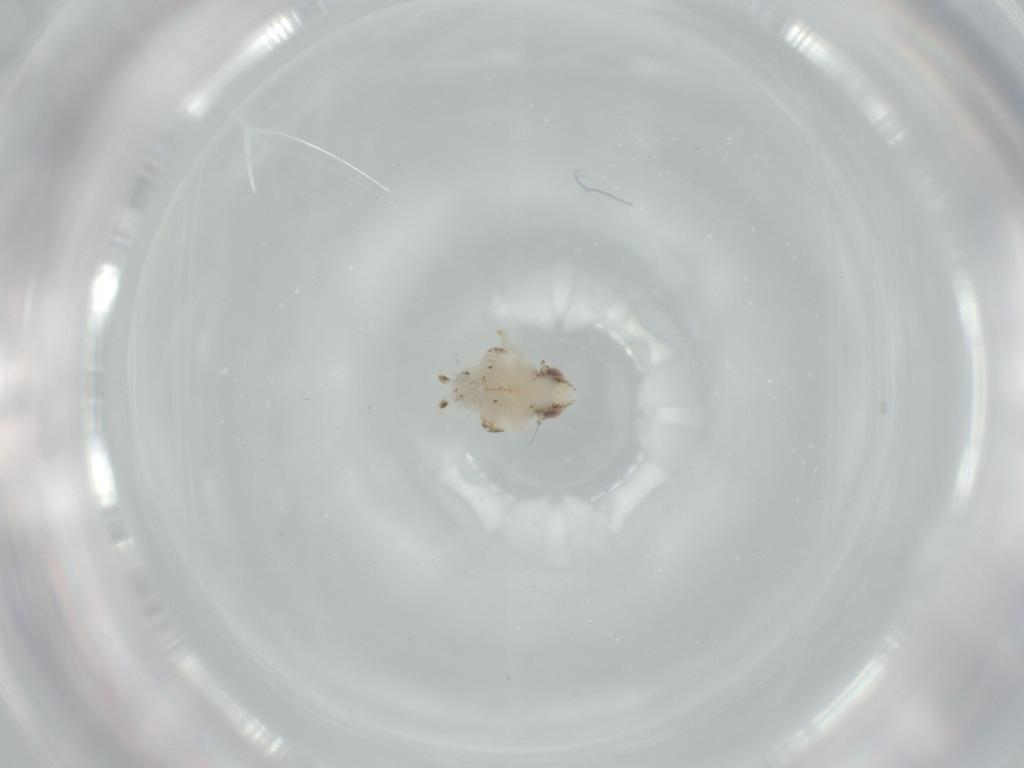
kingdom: Animalia
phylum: Arthropoda
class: Insecta
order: Hemiptera
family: Nogodinidae
